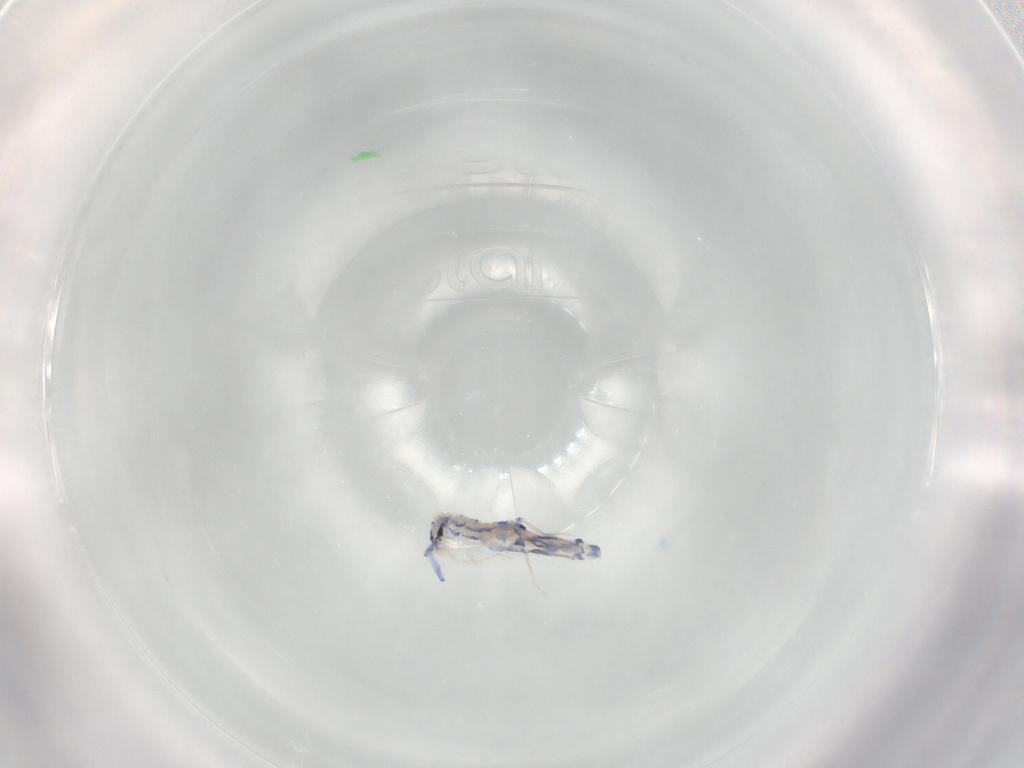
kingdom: Animalia
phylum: Arthropoda
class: Collembola
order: Entomobryomorpha
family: Entomobryidae
